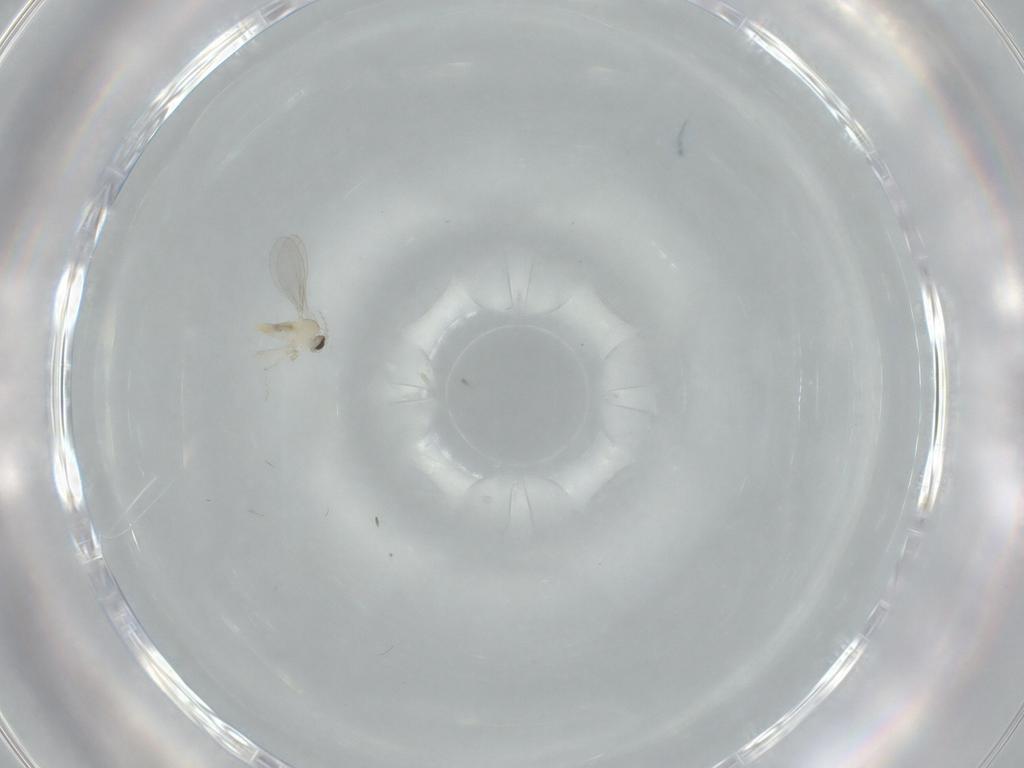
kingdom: Animalia
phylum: Arthropoda
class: Insecta
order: Diptera
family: Cecidomyiidae
